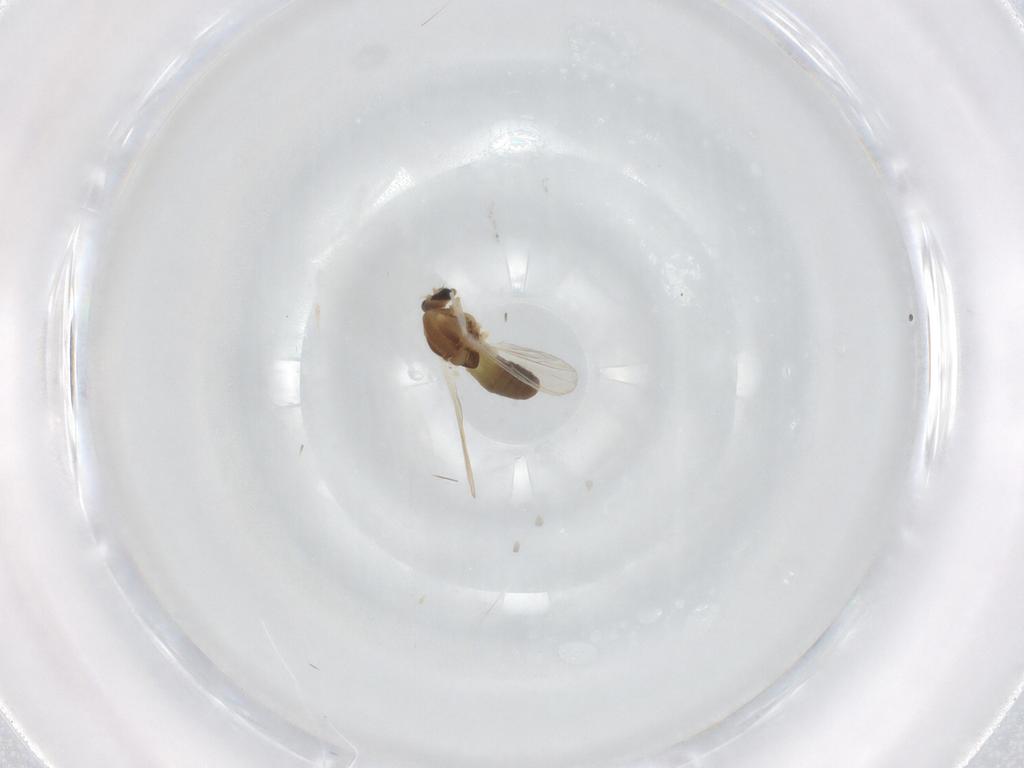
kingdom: Animalia
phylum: Arthropoda
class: Insecta
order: Diptera
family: Chironomidae
